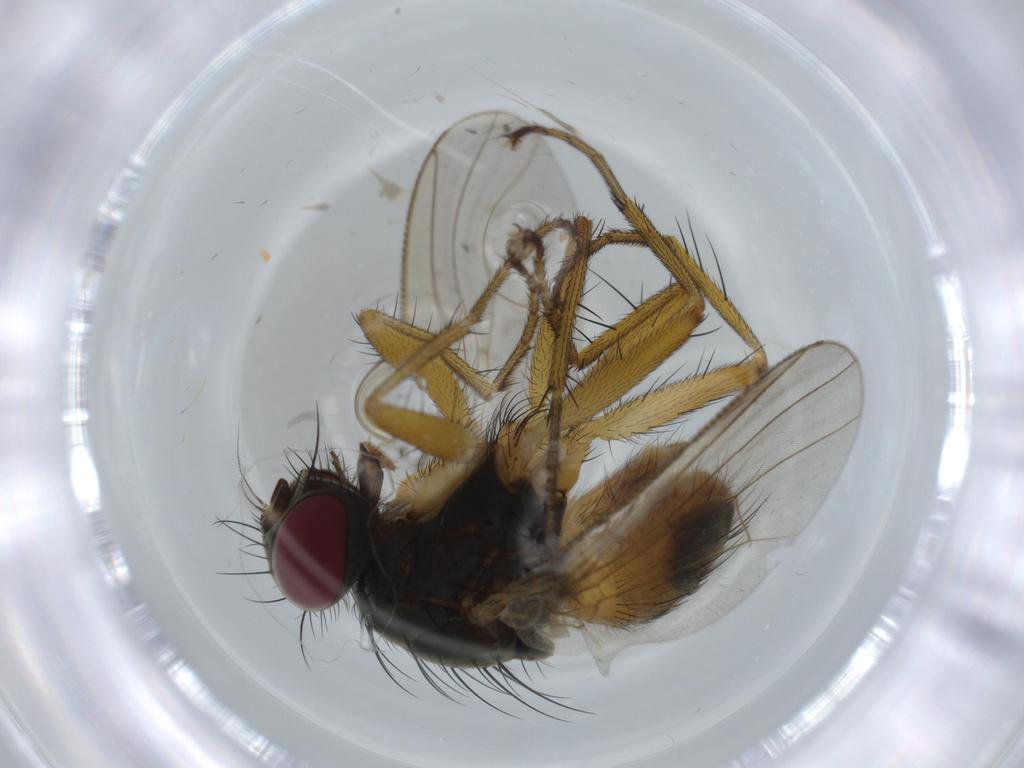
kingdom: Animalia
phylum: Arthropoda
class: Insecta
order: Diptera
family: Muscidae
